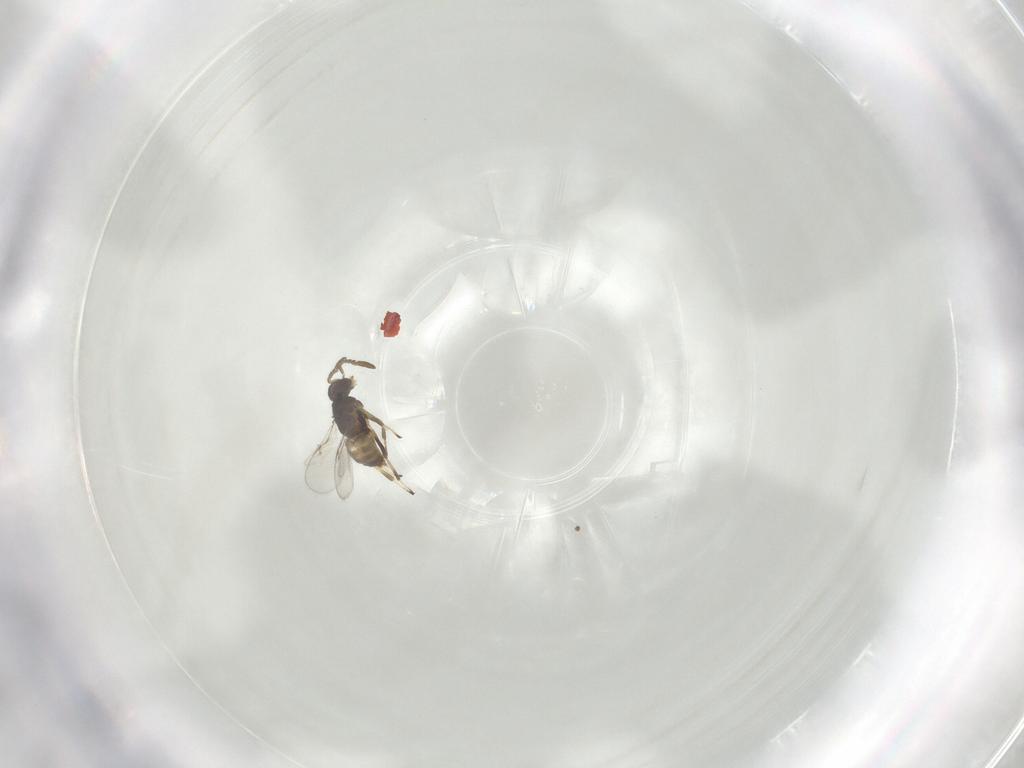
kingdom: Animalia
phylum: Arthropoda
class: Insecta
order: Hymenoptera
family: Encyrtidae
